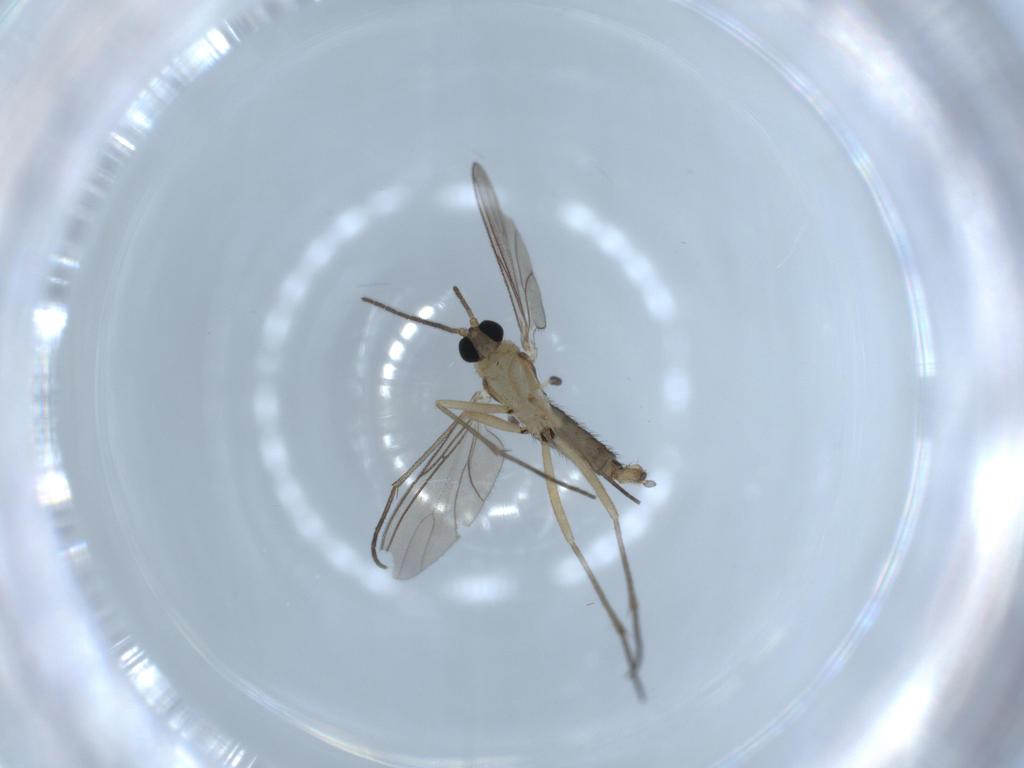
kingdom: Animalia
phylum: Arthropoda
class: Insecta
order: Diptera
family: Sciaridae
